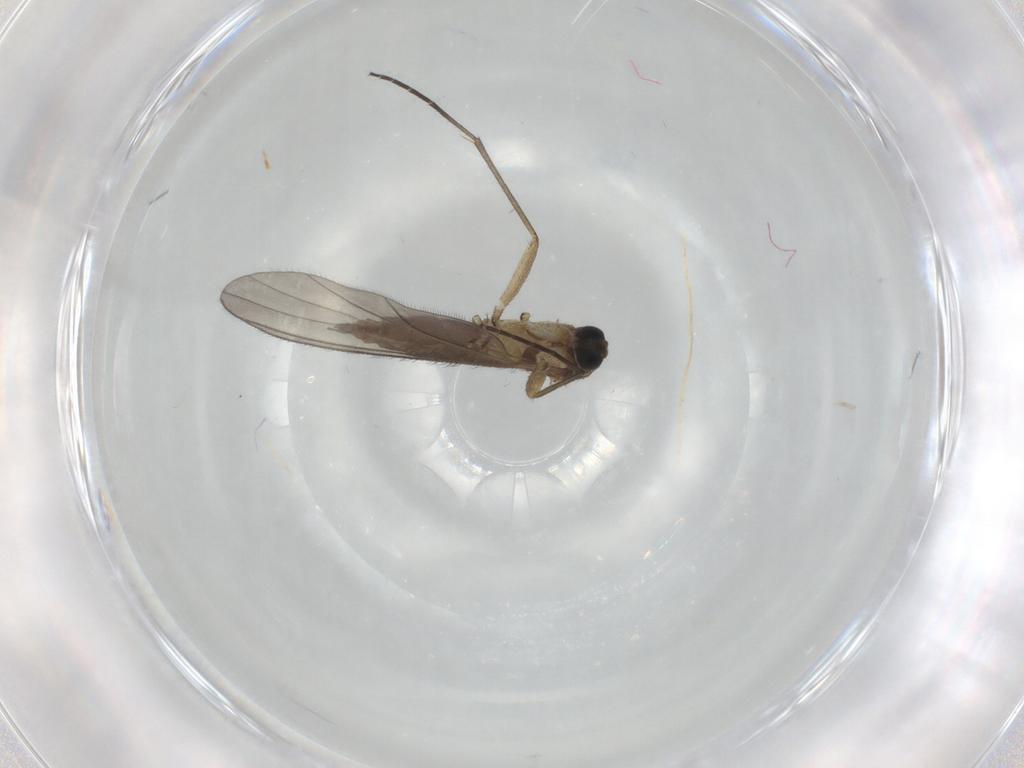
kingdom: Animalia
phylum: Arthropoda
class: Insecta
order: Diptera
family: Sciaridae
